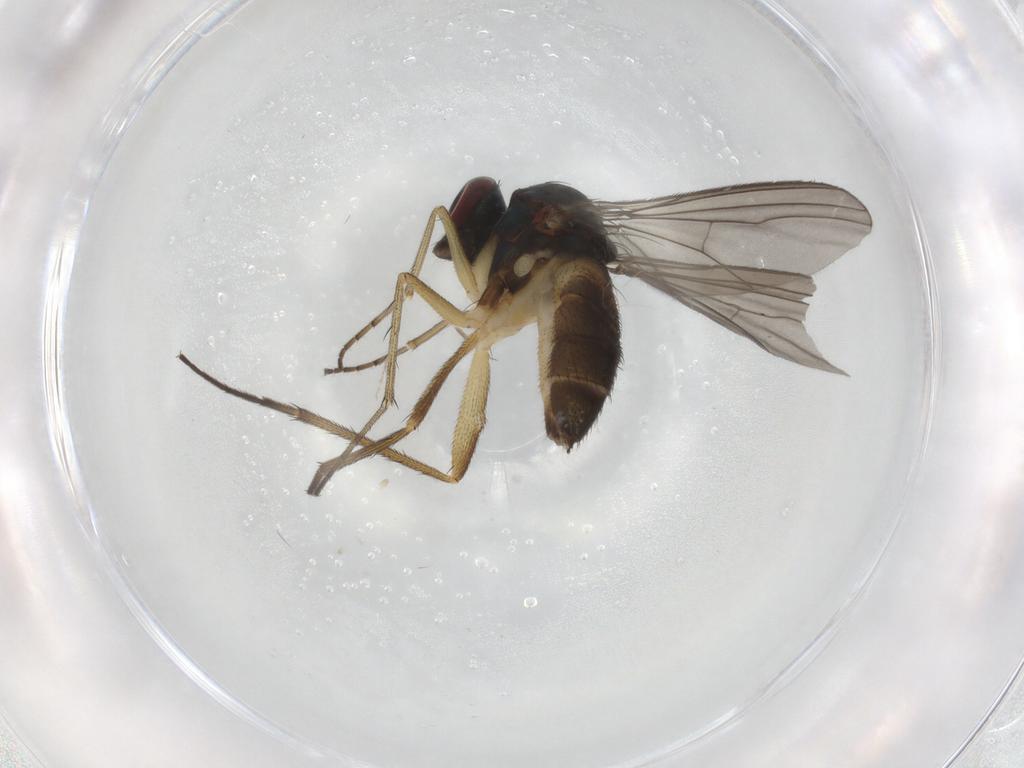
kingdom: Animalia
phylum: Arthropoda
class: Insecta
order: Diptera
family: Dolichopodidae
